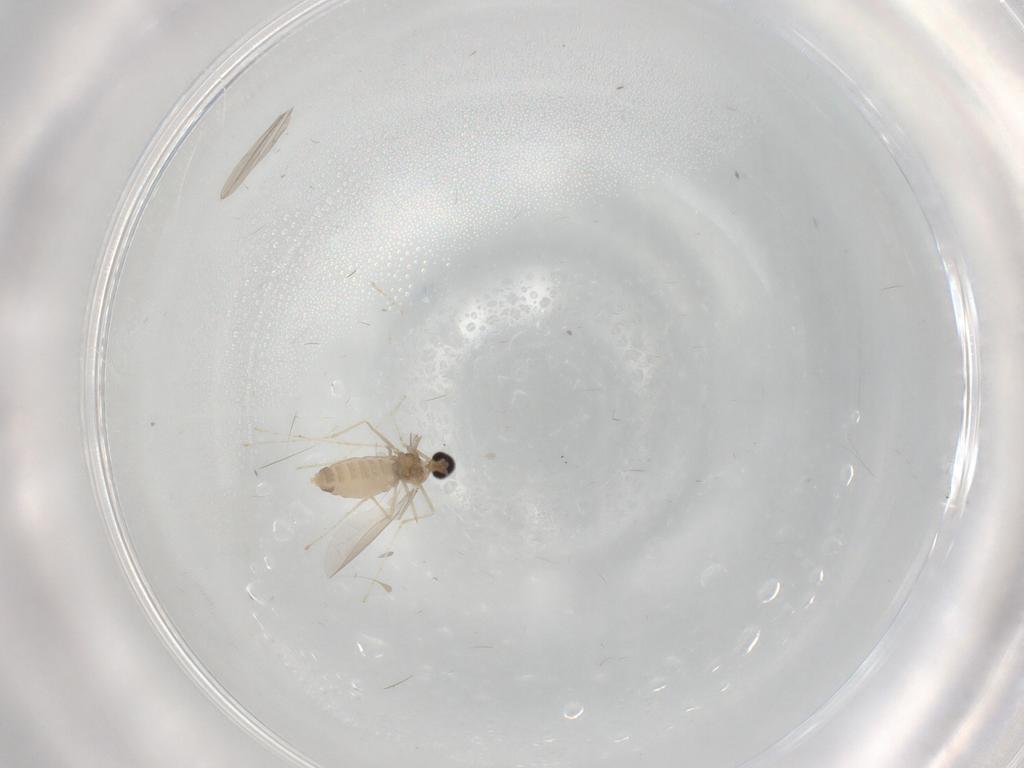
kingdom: Animalia
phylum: Arthropoda
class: Insecta
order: Diptera
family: Cecidomyiidae
